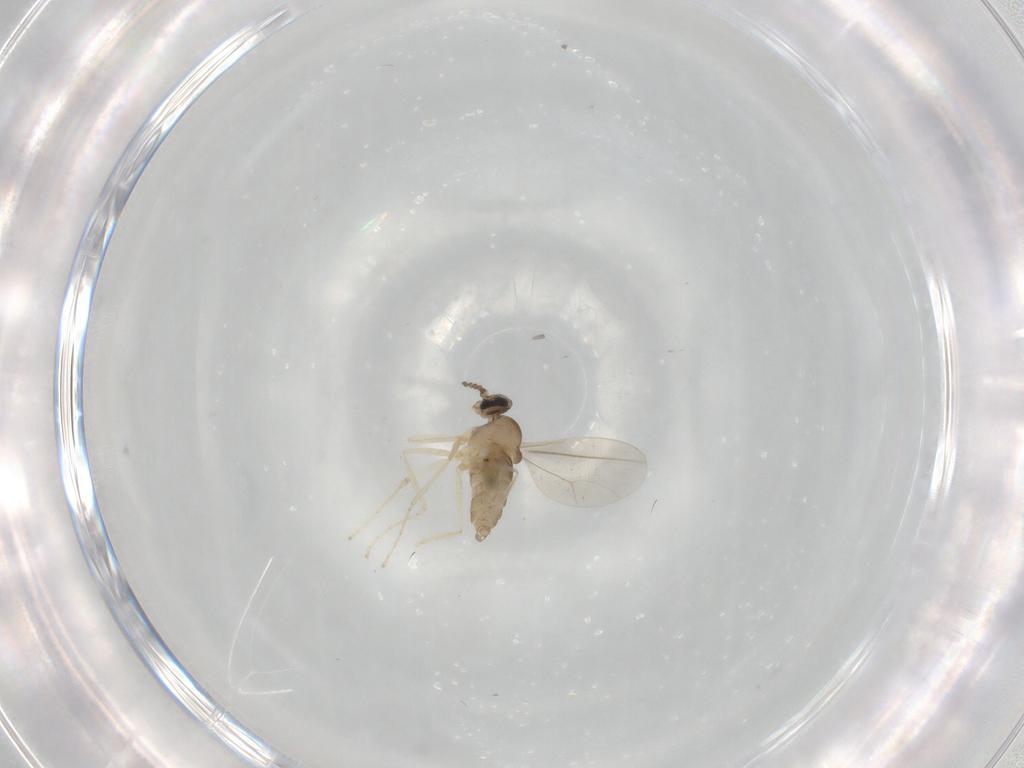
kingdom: Animalia
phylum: Arthropoda
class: Insecta
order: Diptera
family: Cecidomyiidae
